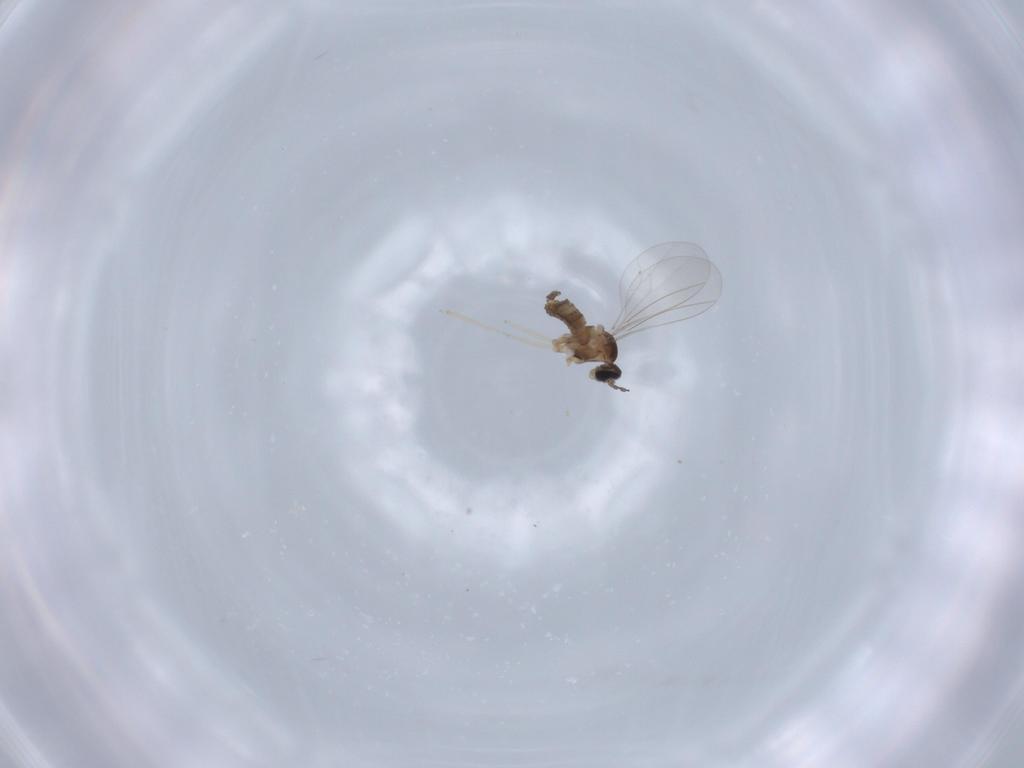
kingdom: Animalia
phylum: Arthropoda
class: Insecta
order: Diptera
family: Cecidomyiidae
